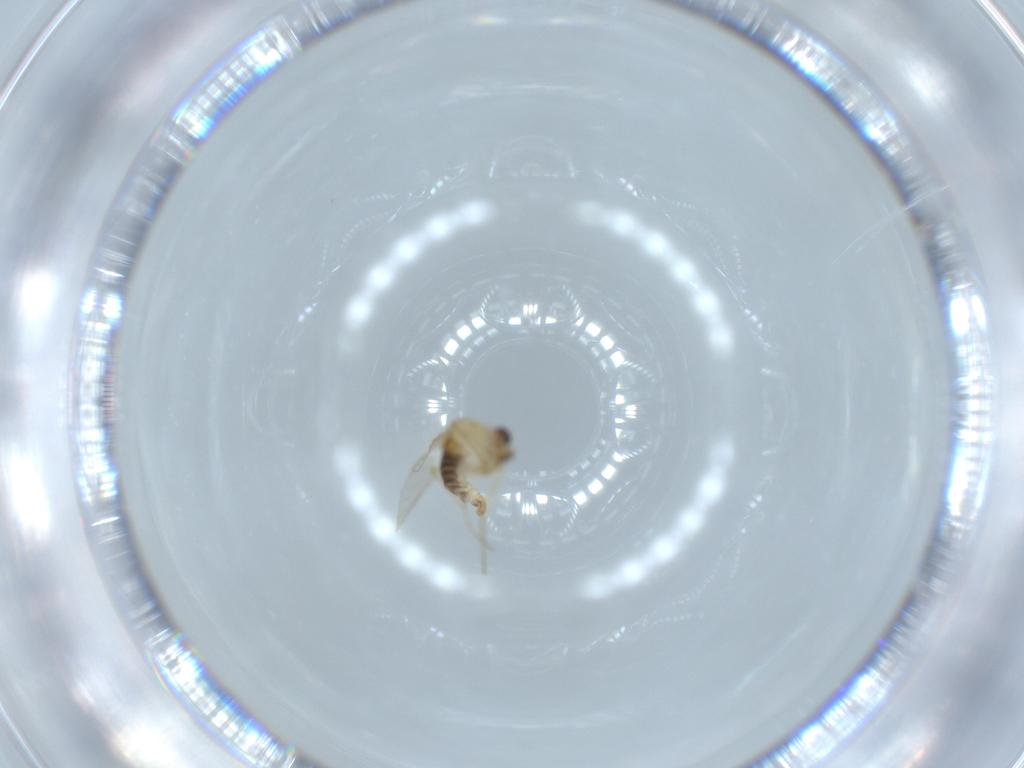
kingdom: Animalia
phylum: Arthropoda
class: Insecta
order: Diptera
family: Chironomidae
